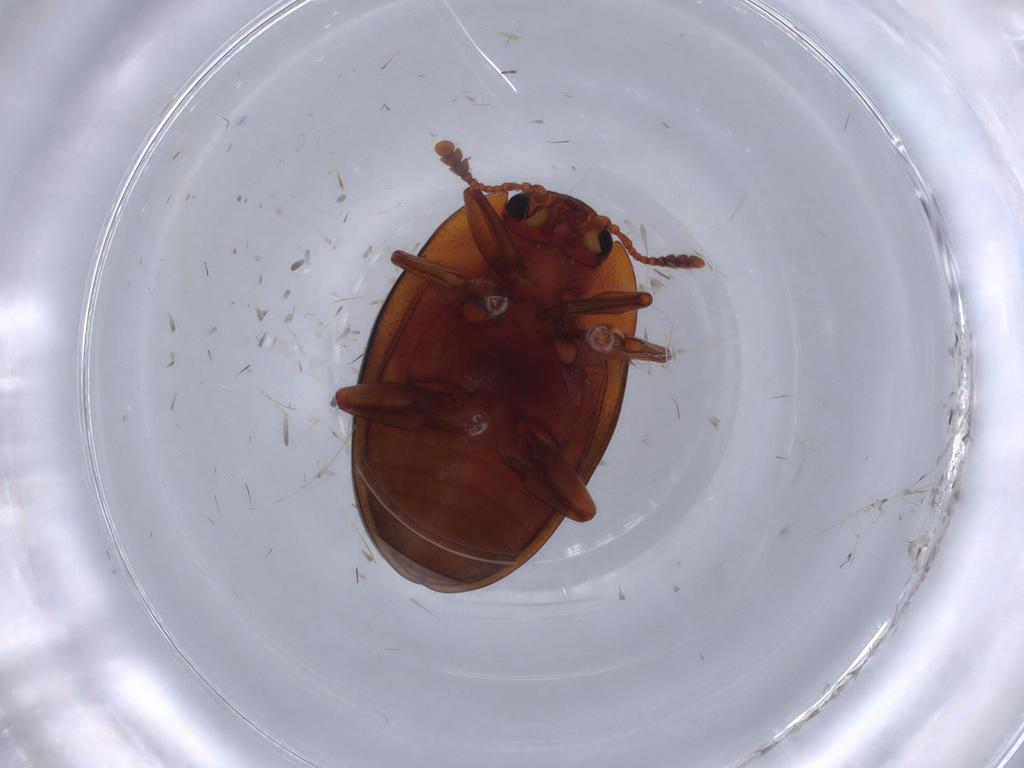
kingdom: Animalia
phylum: Arthropoda
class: Insecta
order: Coleoptera
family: Erotylidae
